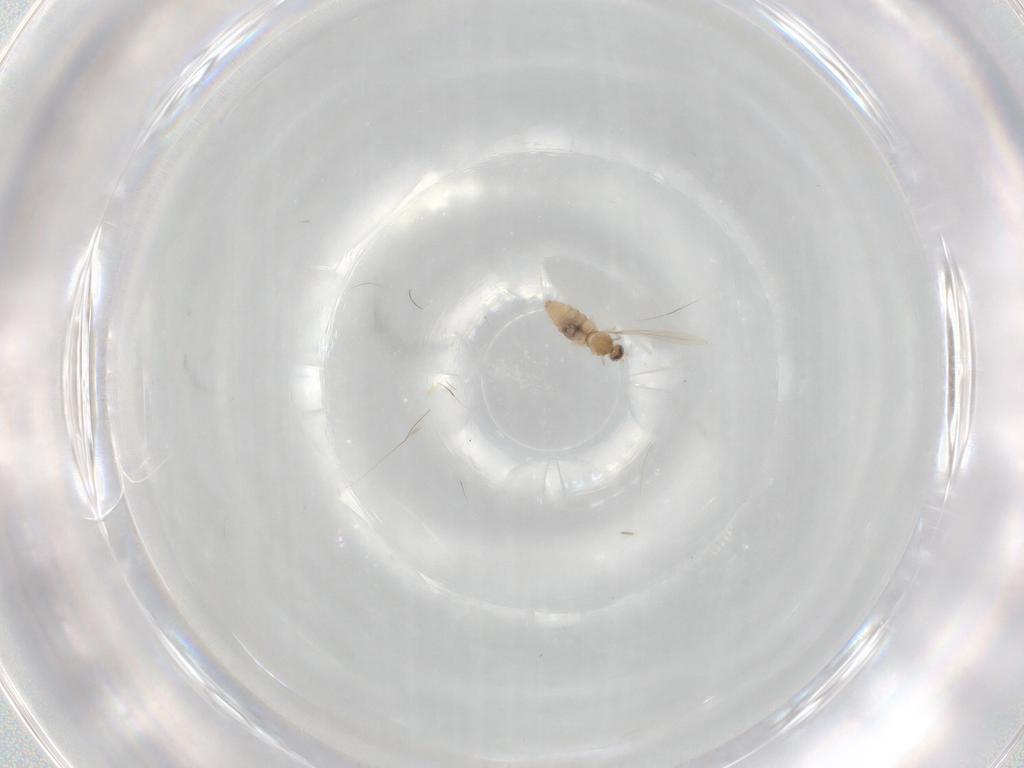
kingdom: Animalia
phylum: Arthropoda
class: Insecta
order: Diptera
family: Cecidomyiidae
